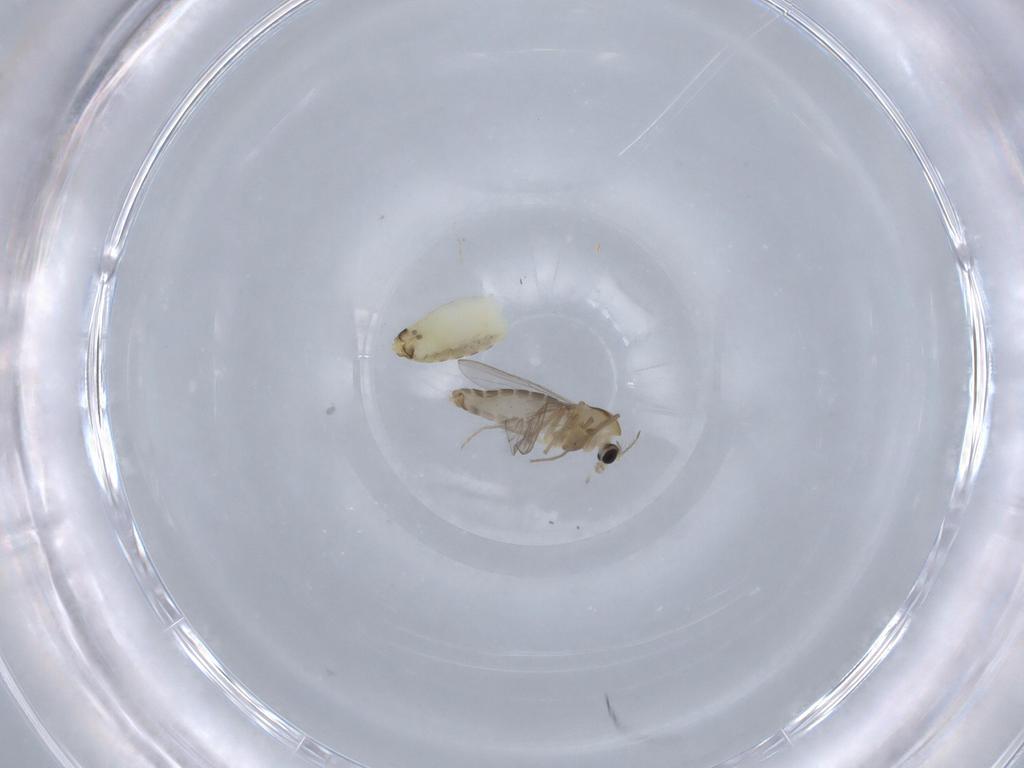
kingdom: Animalia
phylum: Arthropoda
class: Insecta
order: Diptera
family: Chironomidae
